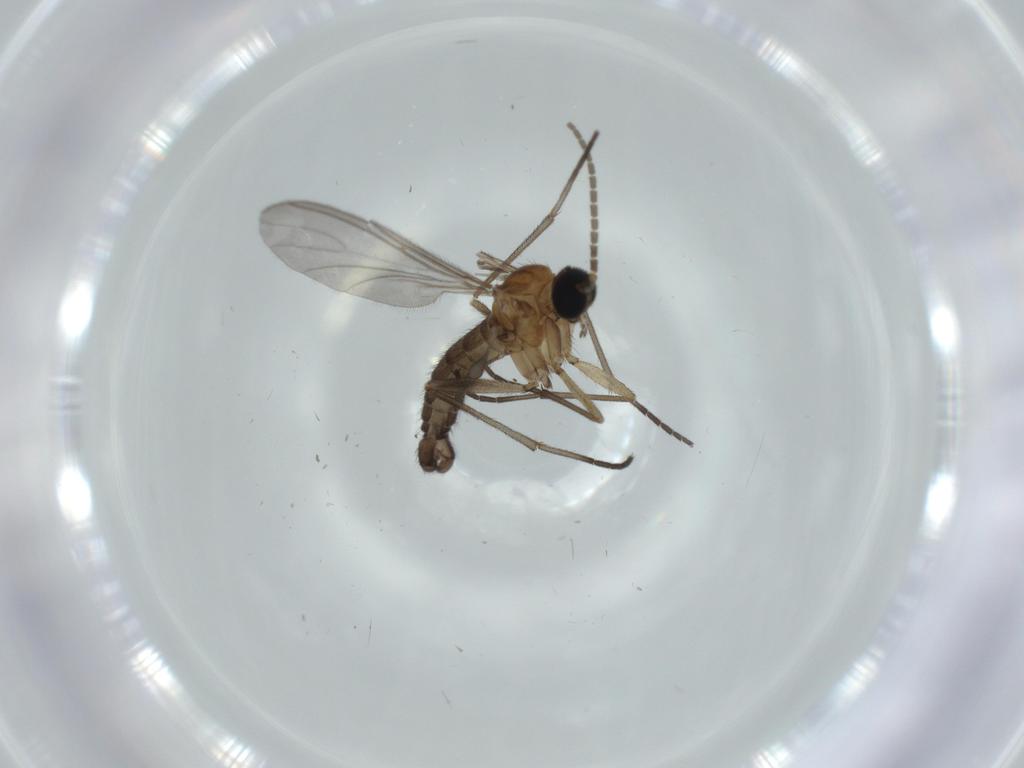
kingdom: Animalia
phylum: Arthropoda
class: Insecta
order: Diptera
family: Sciaridae
